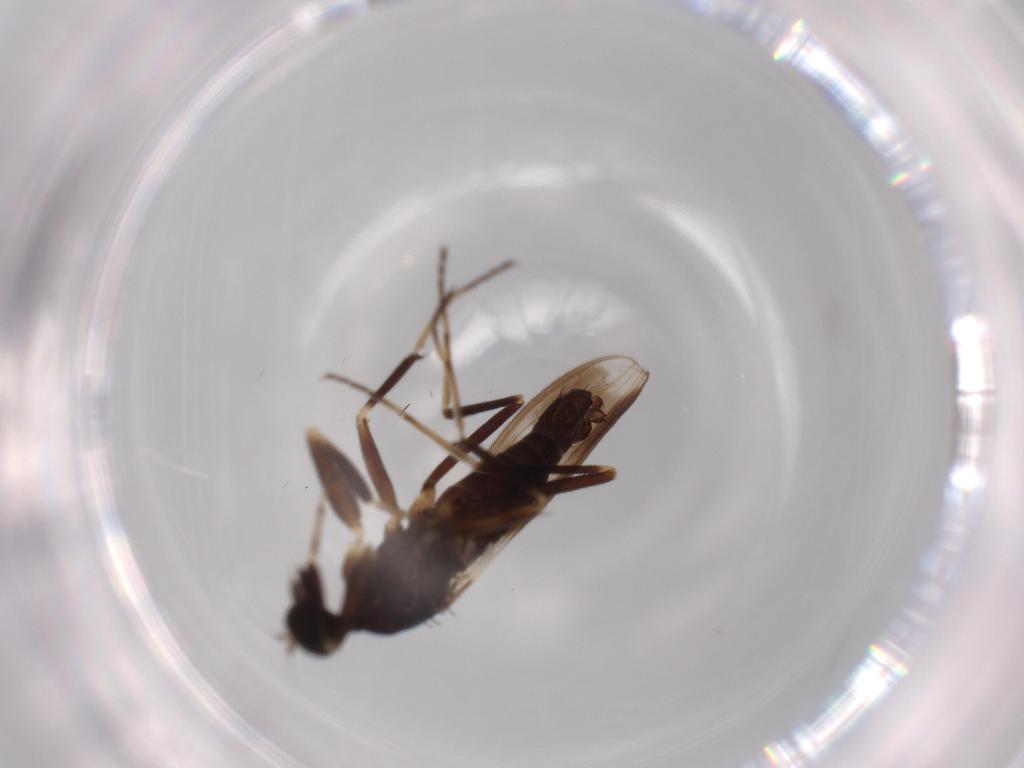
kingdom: Animalia
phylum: Arthropoda
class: Insecta
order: Diptera
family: Hybotidae
